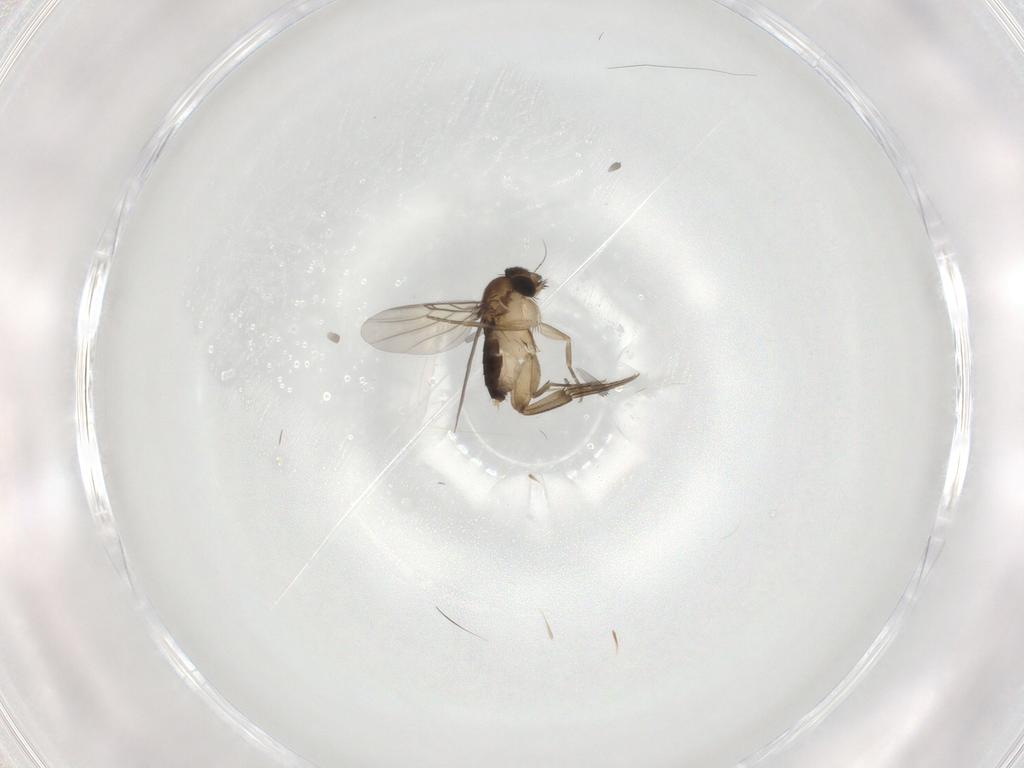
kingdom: Animalia
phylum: Arthropoda
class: Insecta
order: Diptera
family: Phoridae
